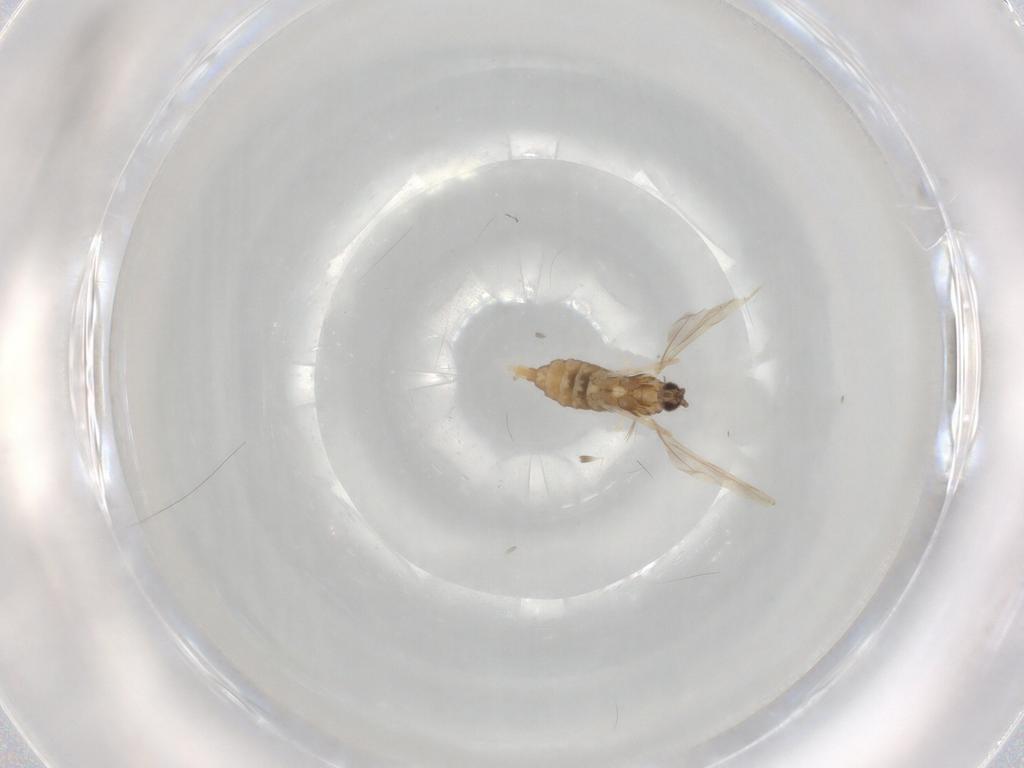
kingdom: Animalia
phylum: Arthropoda
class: Insecta
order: Diptera
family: Cecidomyiidae
